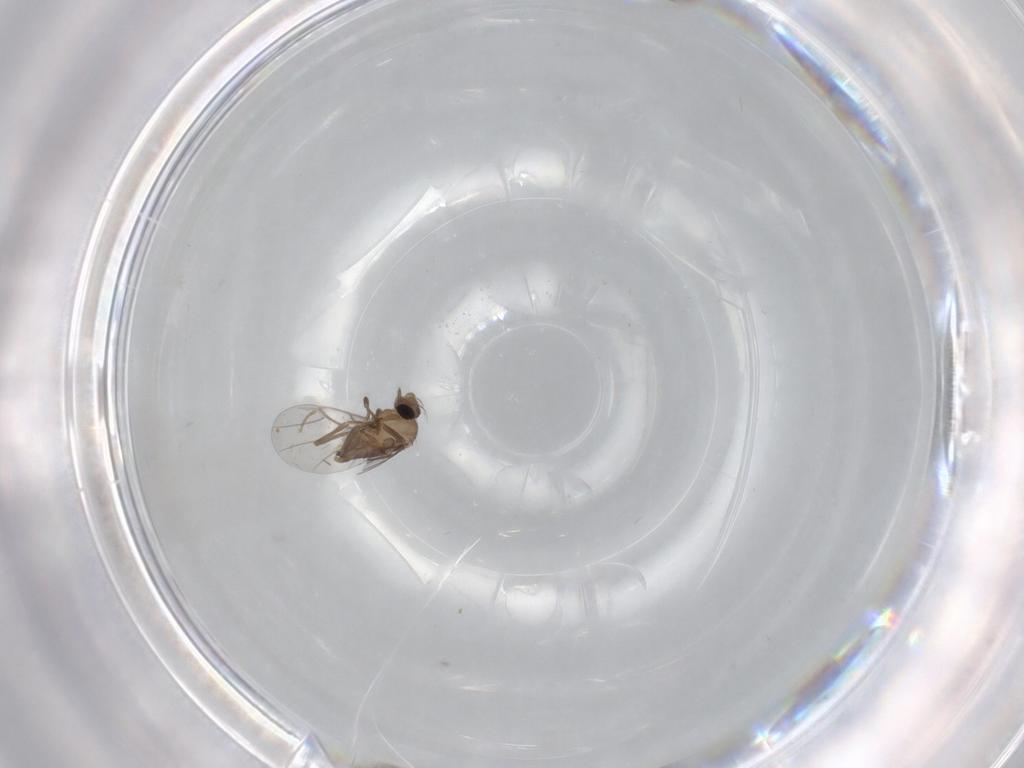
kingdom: Animalia
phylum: Arthropoda
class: Insecta
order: Diptera
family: Sciaridae
